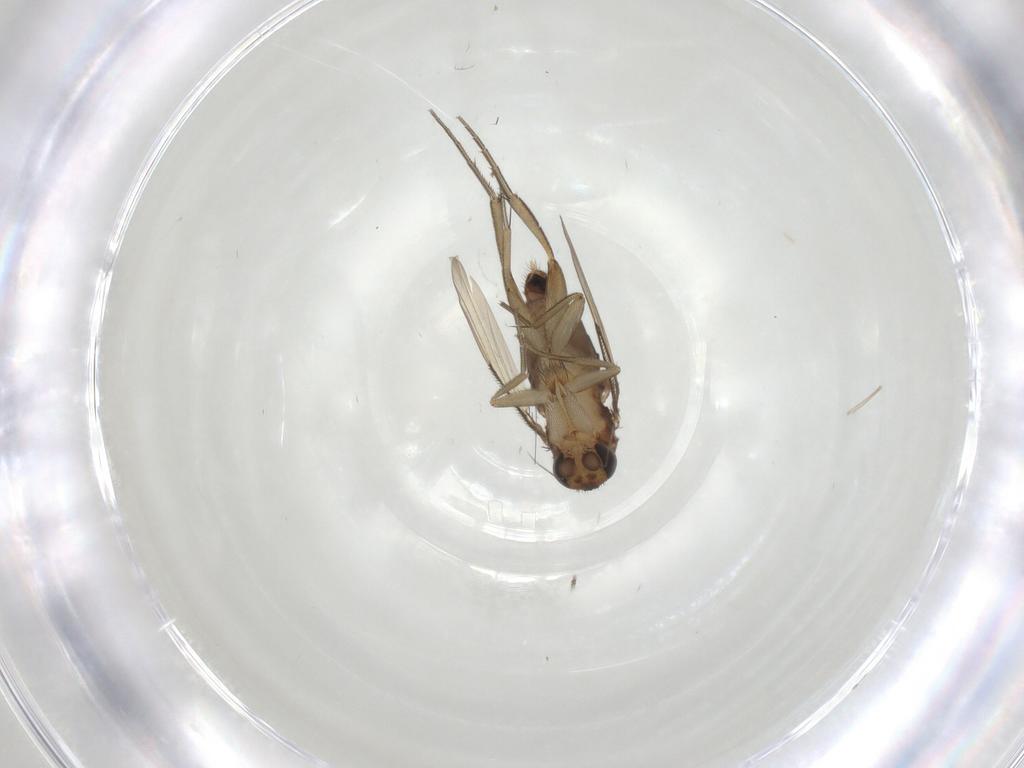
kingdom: Animalia
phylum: Arthropoda
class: Insecta
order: Diptera
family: Phoridae
